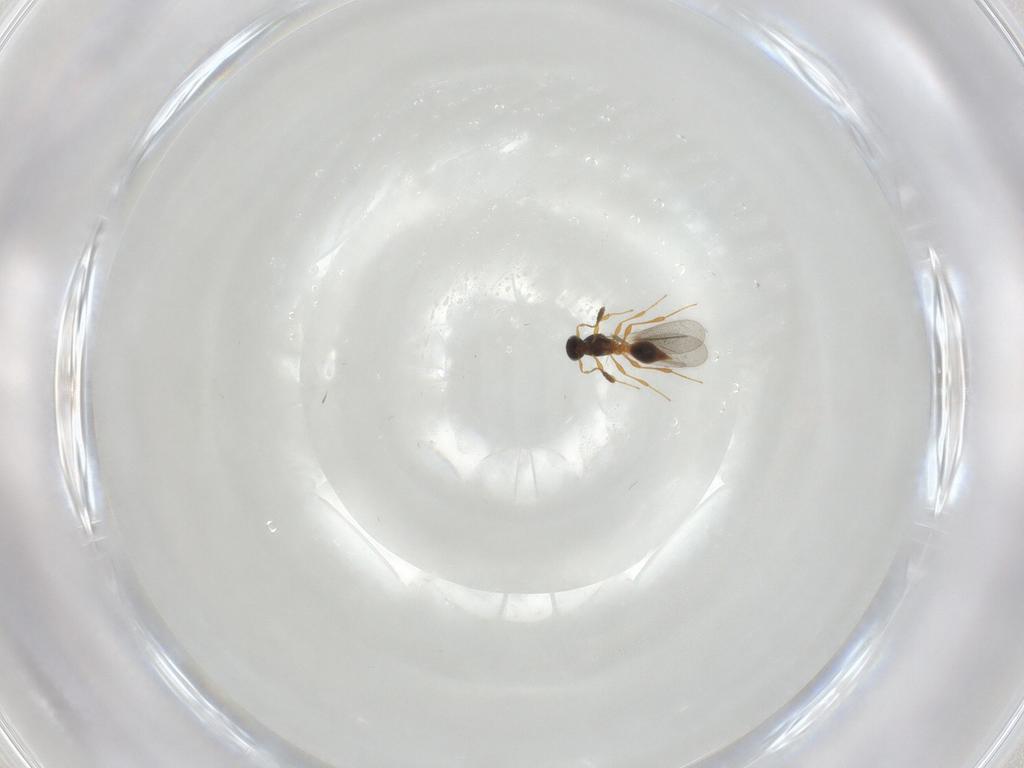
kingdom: Animalia
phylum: Arthropoda
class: Insecta
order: Hymenoptera
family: Platygastridae
